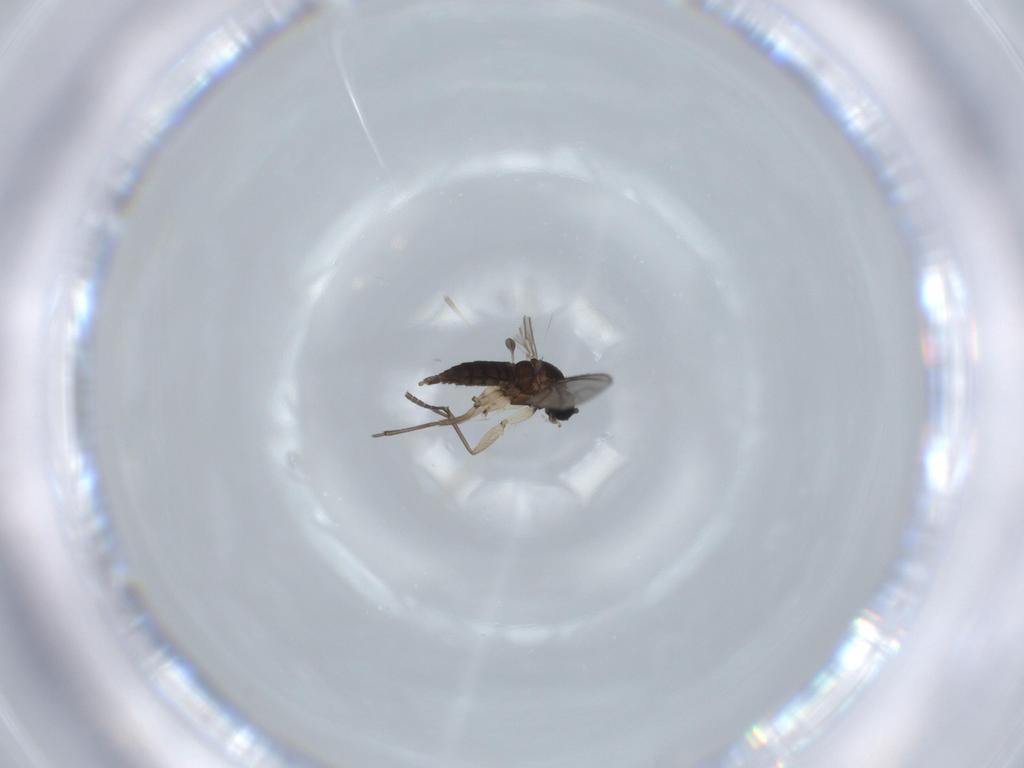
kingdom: Animalia
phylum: Arthropoda
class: Insecta
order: Diptera
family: Sciaridae
